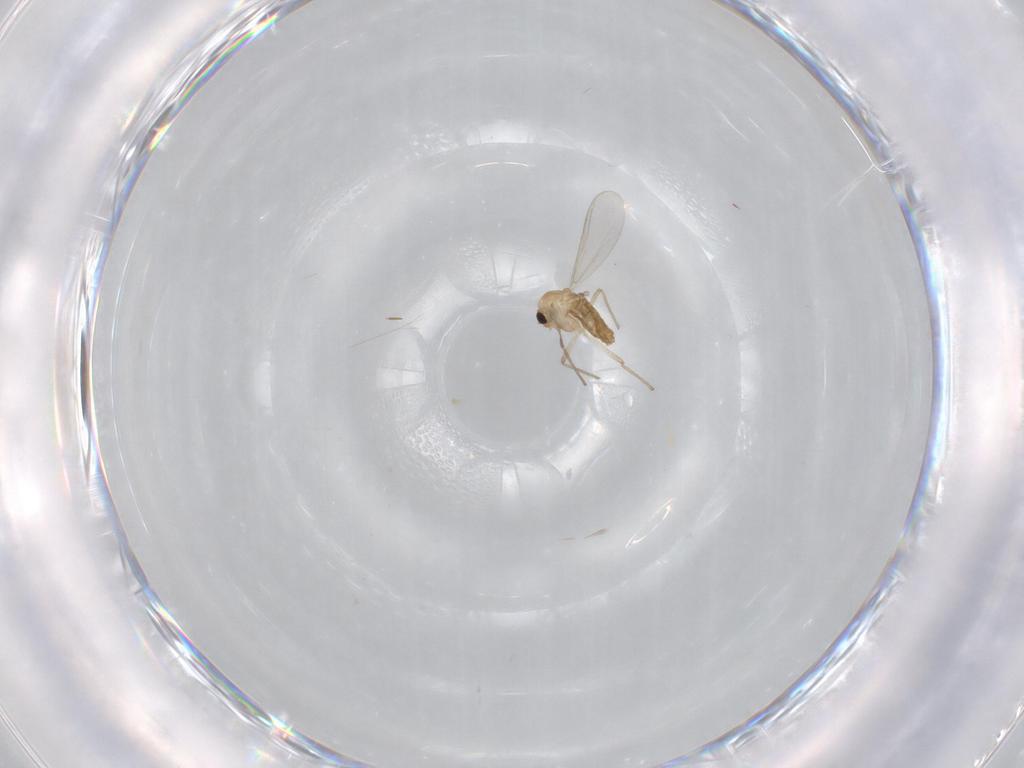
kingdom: Animalia
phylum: Arthropoda
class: Insecta
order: Diptera
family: Chironomidae
